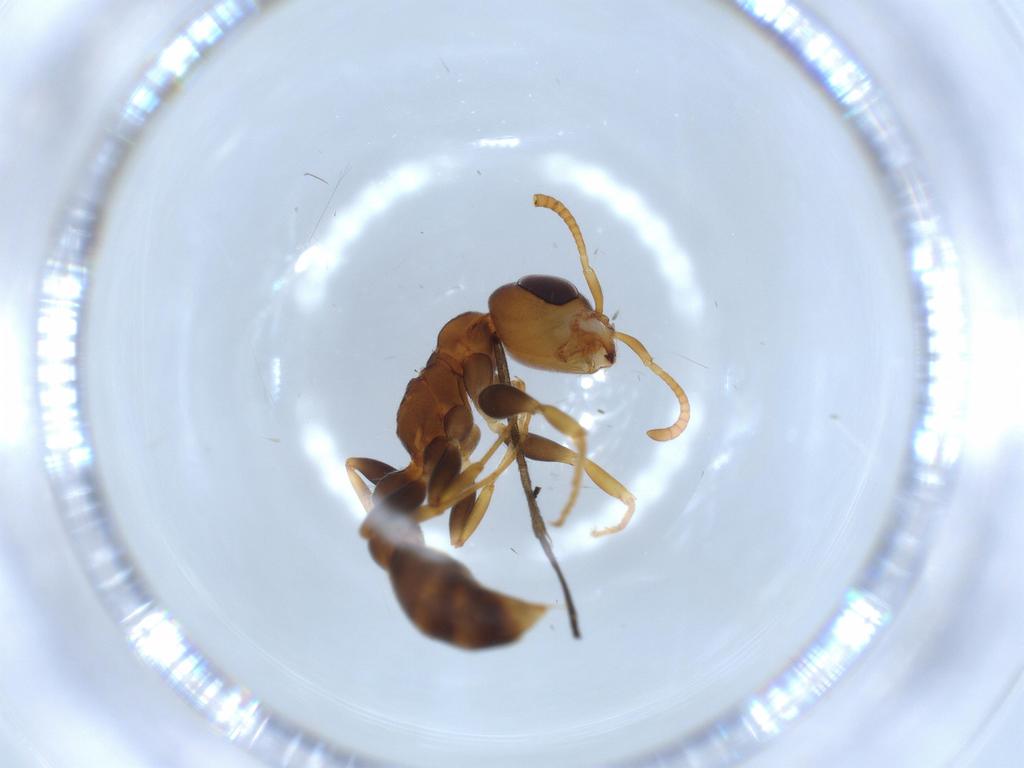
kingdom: Animalia
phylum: Arthropoda
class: Insecta
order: Hymenoptera
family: Formicidae
